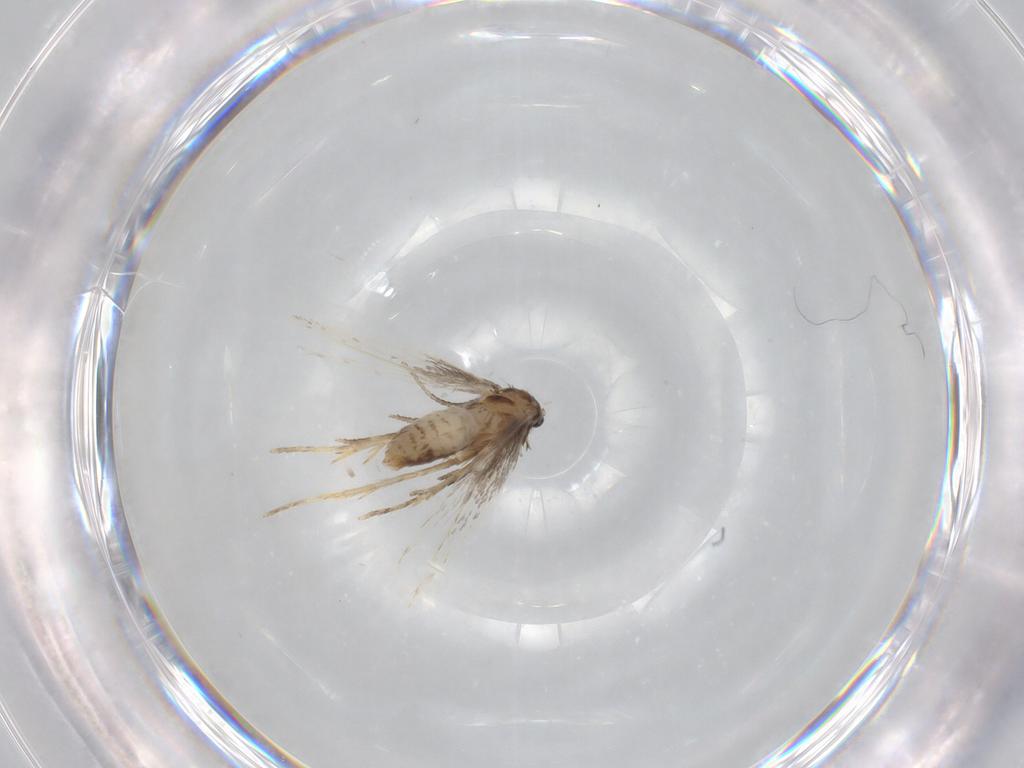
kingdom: Animalia
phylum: Arthropoda
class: Insecta
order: Lepidoptera
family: Nepticulidae
